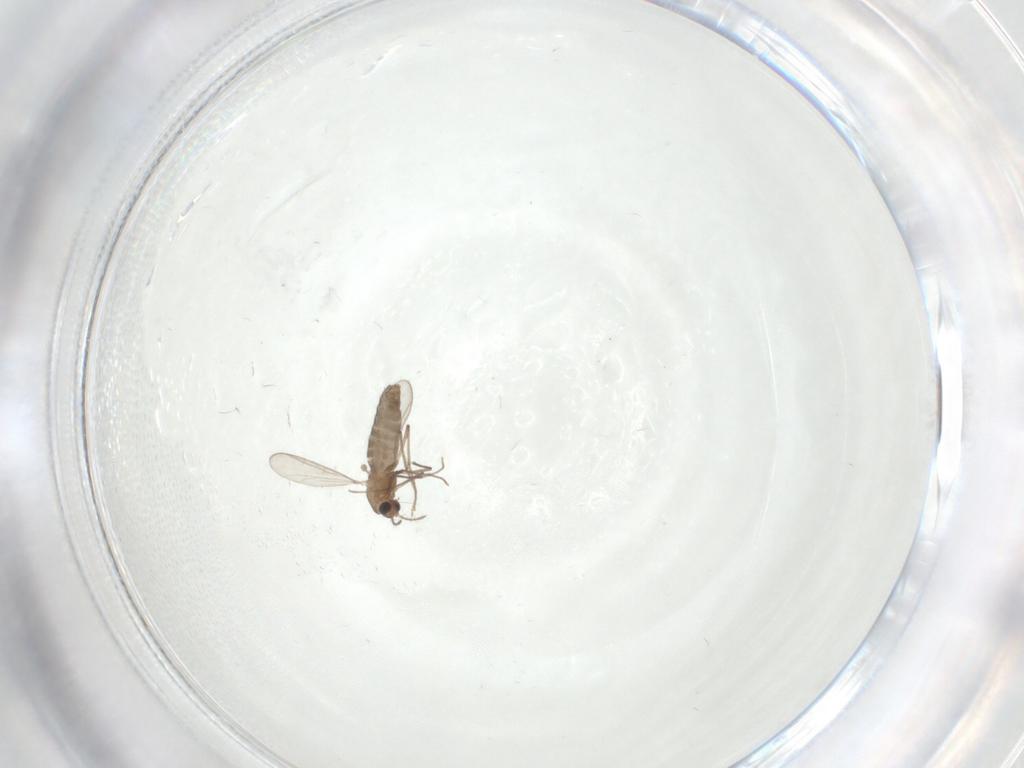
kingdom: Animalia
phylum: Arthropoda
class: Insecta
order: Diptera
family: Chironomidae
